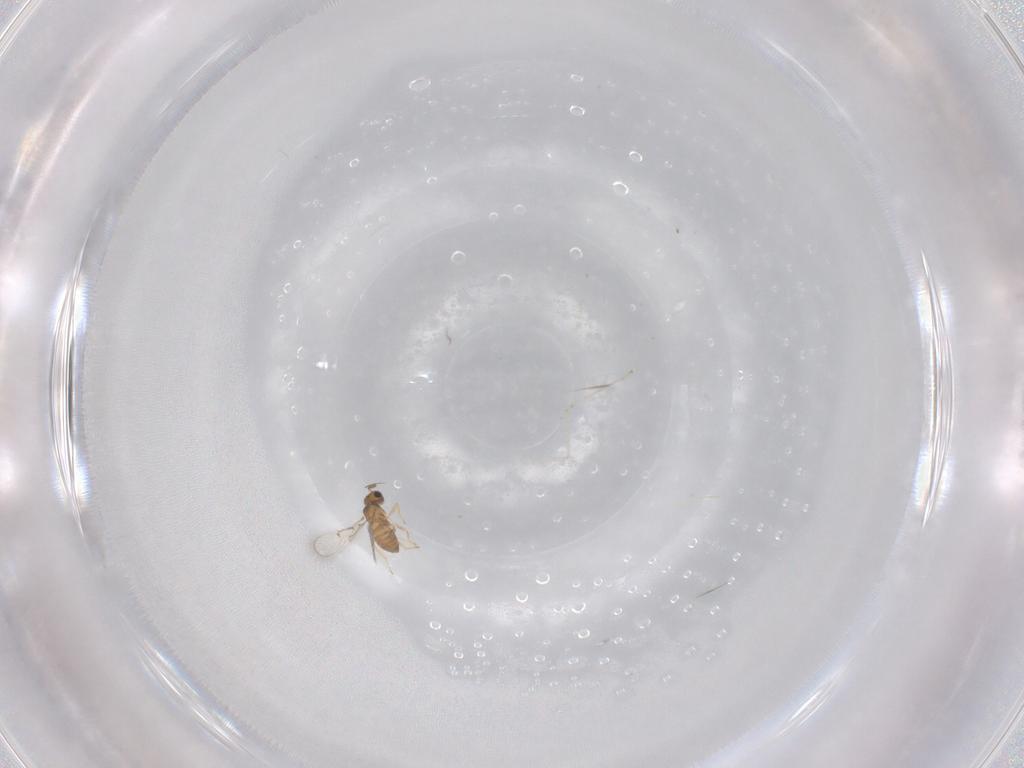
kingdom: Animalia
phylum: Arthropoda
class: Insecta
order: Hymenoptera
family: Trichogrammatidae
